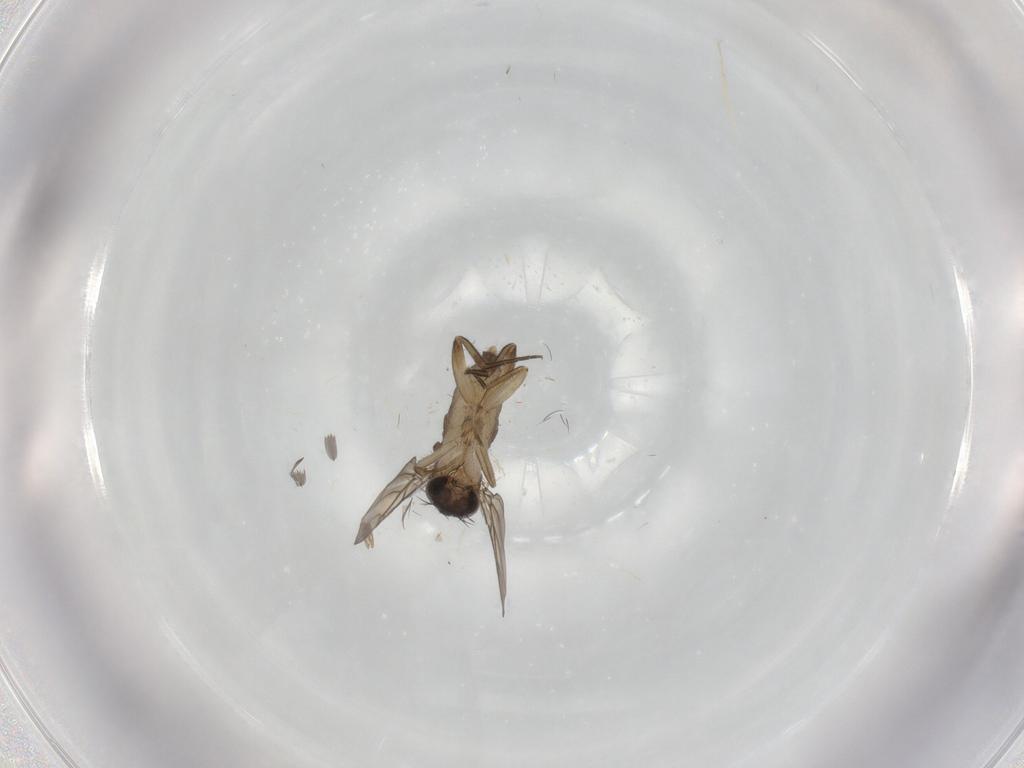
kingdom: Animalia
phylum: Arthropoda
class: Insecta
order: Diptera
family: Phoridae
